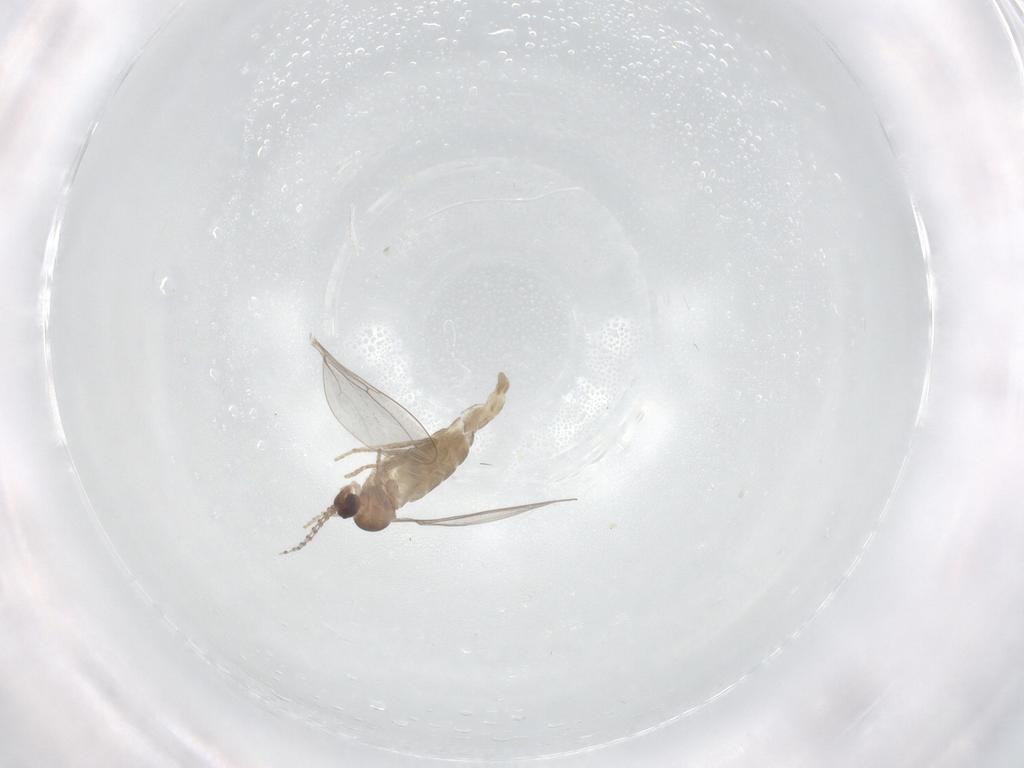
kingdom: Animalia
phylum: Arthropoda
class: Insecta
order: Diptera
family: Cecidomyiidae
